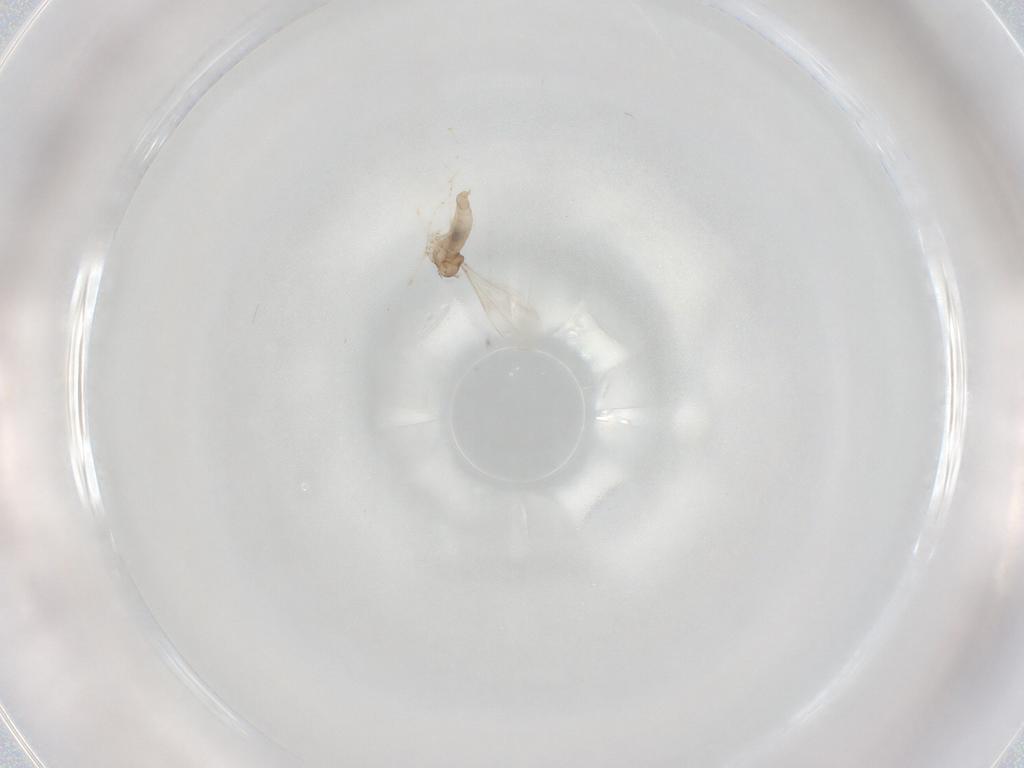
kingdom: Animalia
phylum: Arthropoda
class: Insecta
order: Diptera
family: Cecidomyiidae
